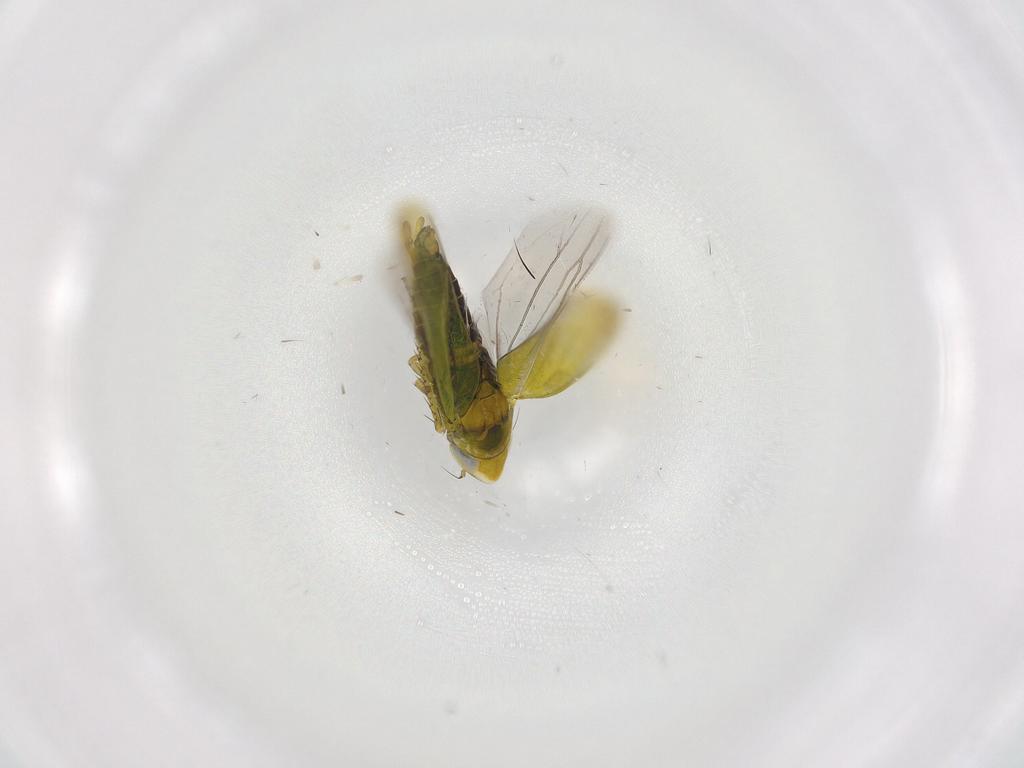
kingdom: Animalia
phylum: Arthropoda
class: Insecta
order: Hemiptera
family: Cicadellidae
